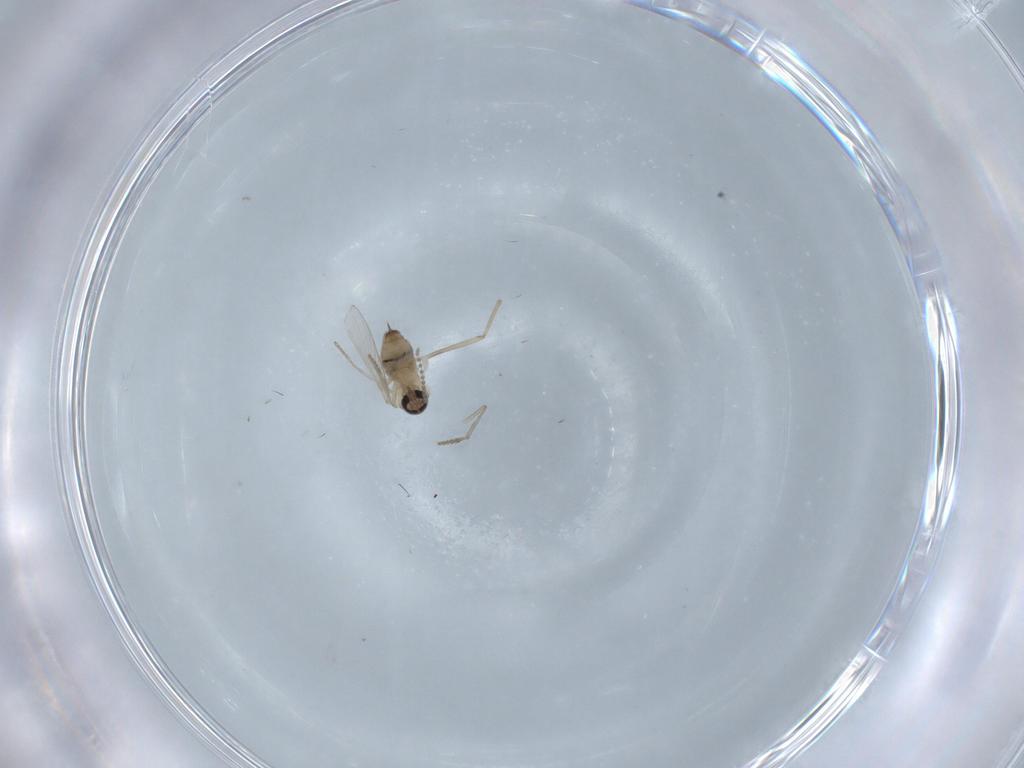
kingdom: Animalia
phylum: Arthropoda
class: Insecta
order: Diptera
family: Psychodidae
